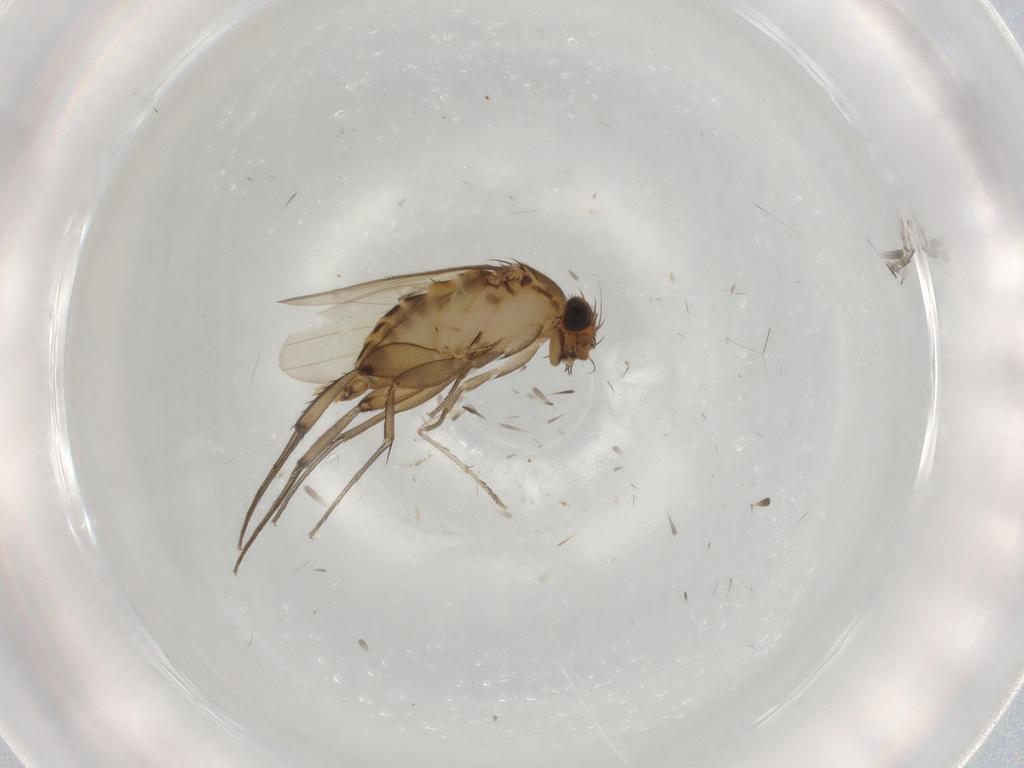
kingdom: Animalia
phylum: Arthropoda
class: Insecta
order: Diptera
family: Phoridae
